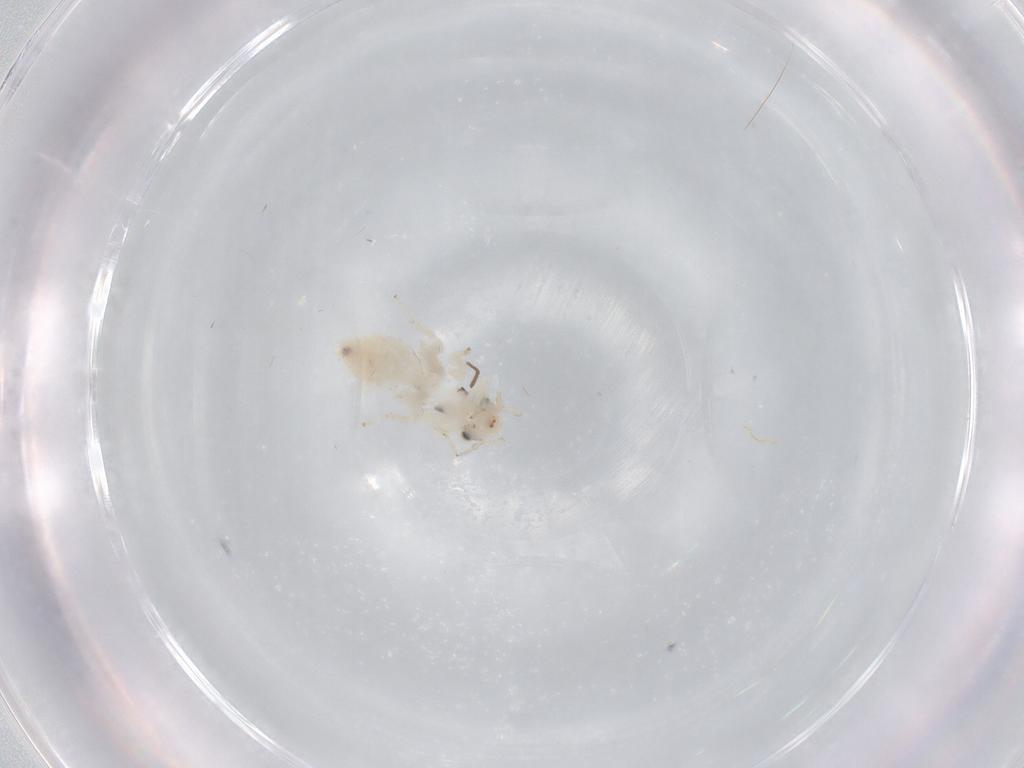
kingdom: Animalia
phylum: Arthropoda
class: Insecta
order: Psocodea
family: Lepidopsocidae
